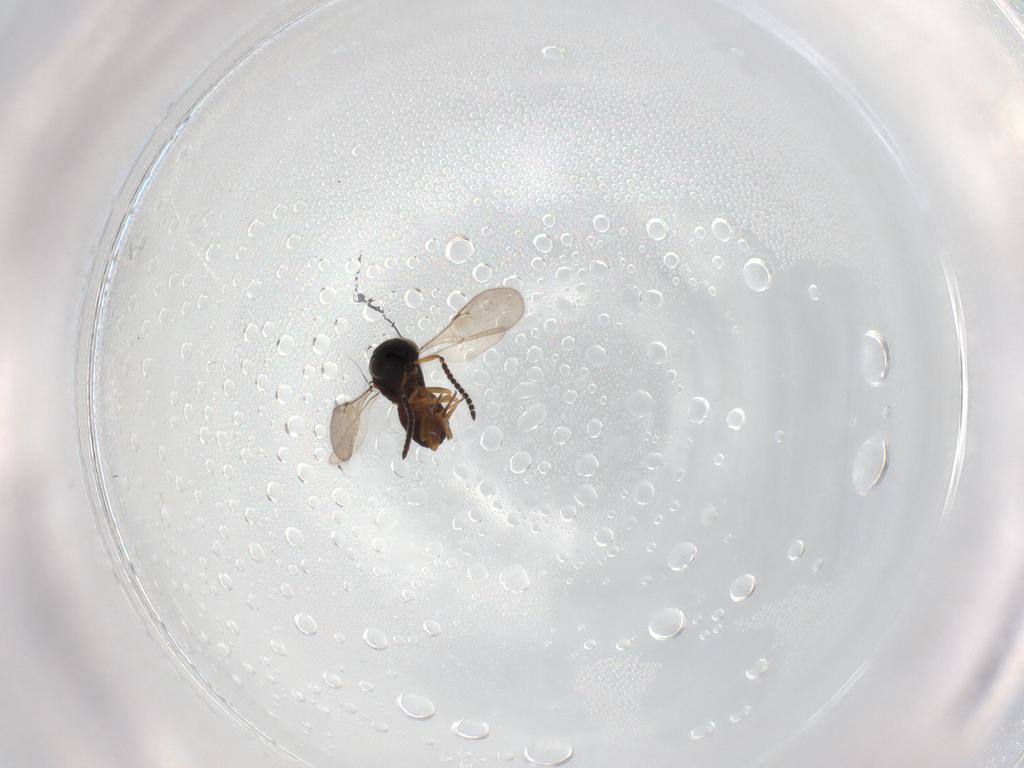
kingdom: Animalia
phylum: Arthropoda
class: Insecta
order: Hymenoptera
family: Scelionidae
